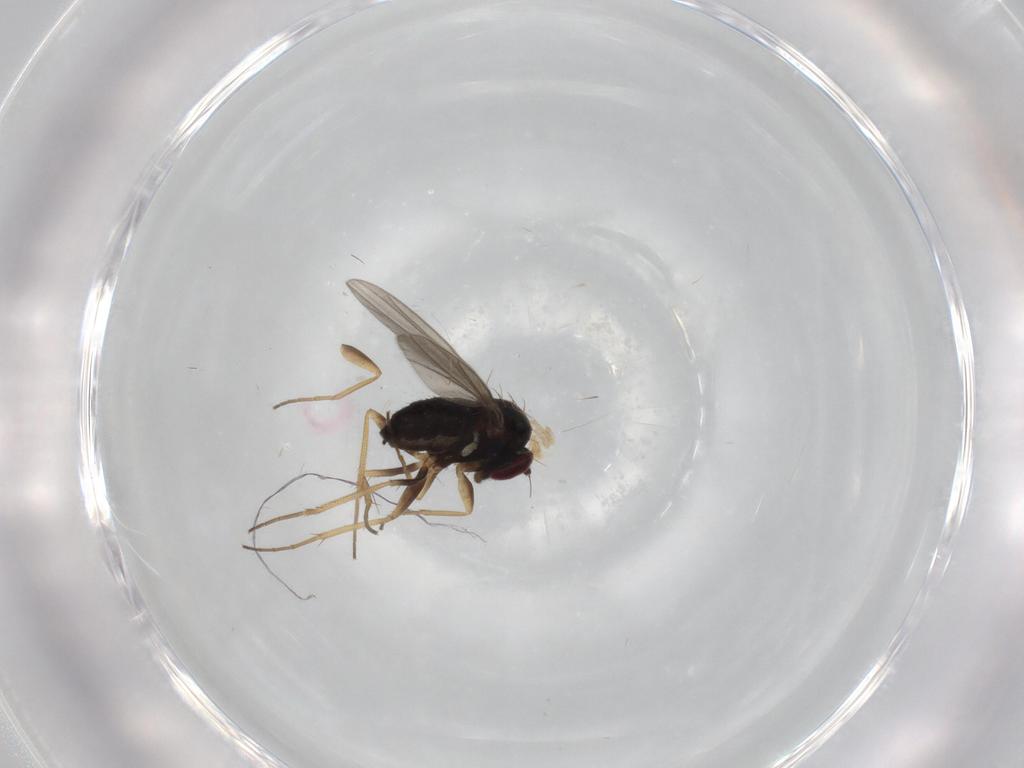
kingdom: Animalia
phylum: Arthropoda
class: Insecta
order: Diptera
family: Dolichopodidae
